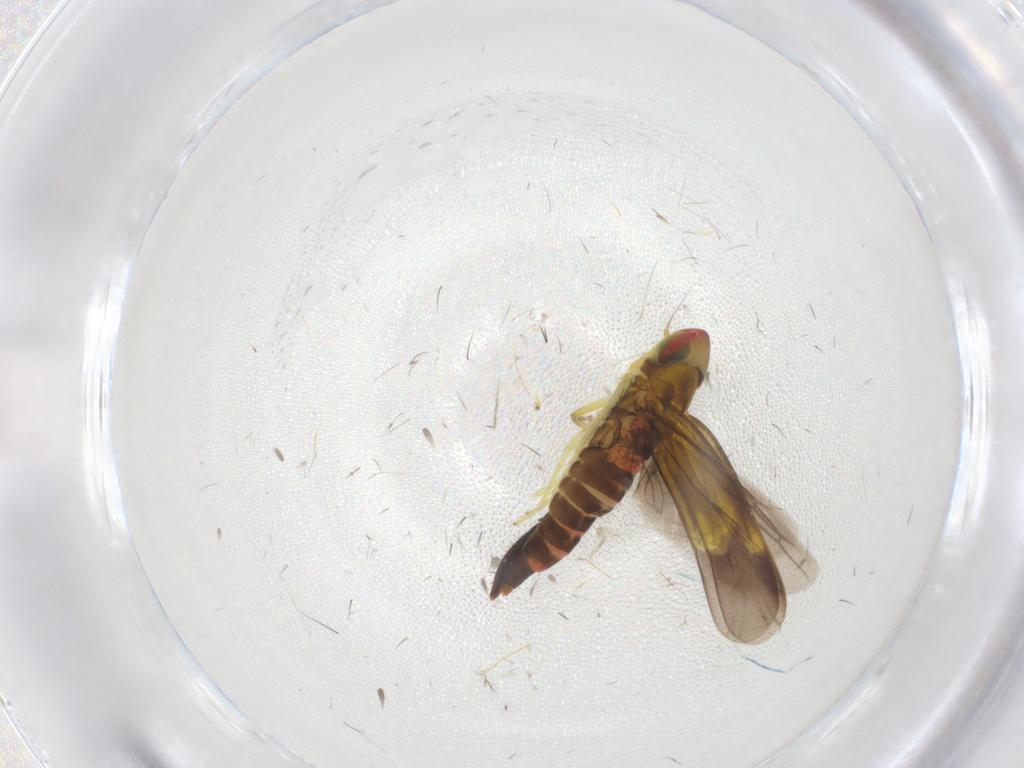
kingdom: Animalia
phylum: Arthropoda
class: Insecta
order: Hemiptera
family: Cicadellidae
